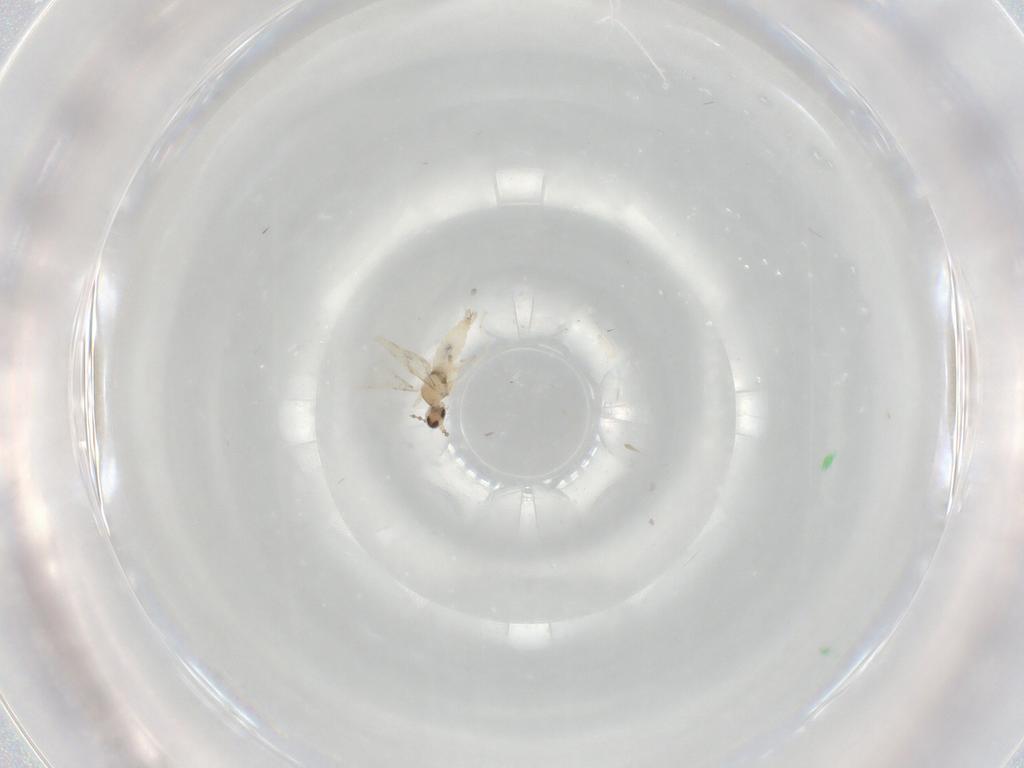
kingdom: Animalia
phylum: Arthropoda
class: Insecta
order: Diptera
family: Cecidomyiidae
